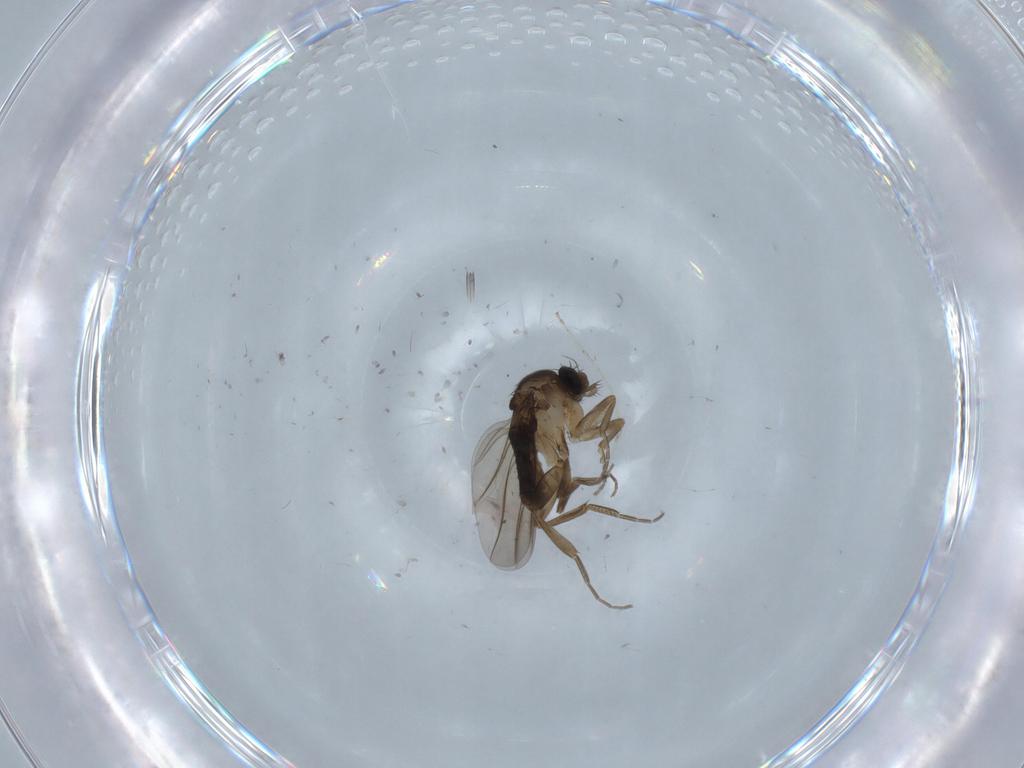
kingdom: Animalia
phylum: Arthropoda
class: Insecta
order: Diptera
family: Phoridae
